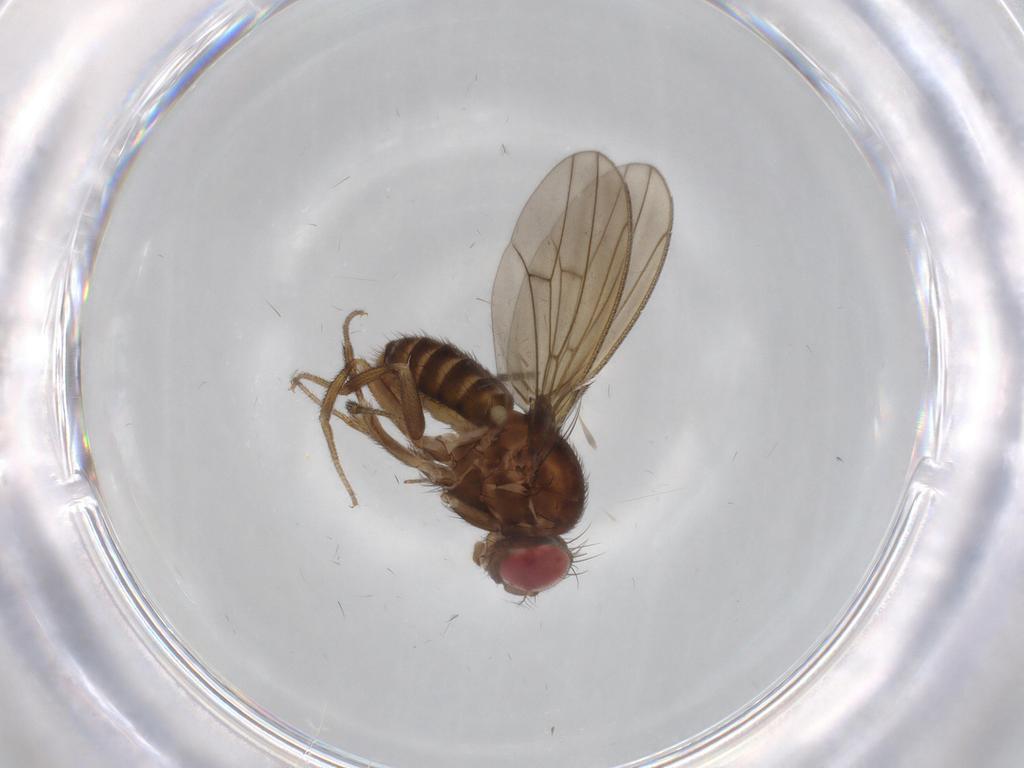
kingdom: Animalia
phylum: Arthropoda
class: Insecta
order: Diptera
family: Drosophilidae
